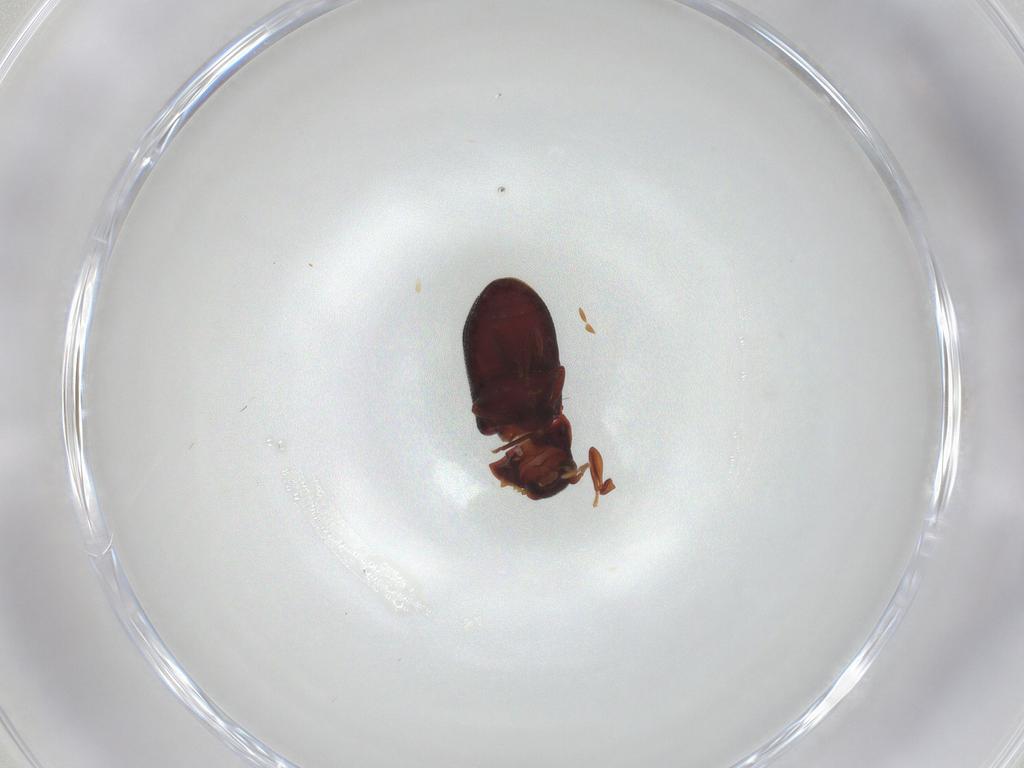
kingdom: Animalia
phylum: Arthropoda
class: Insecta
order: Coleoptera
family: Ptinidae
